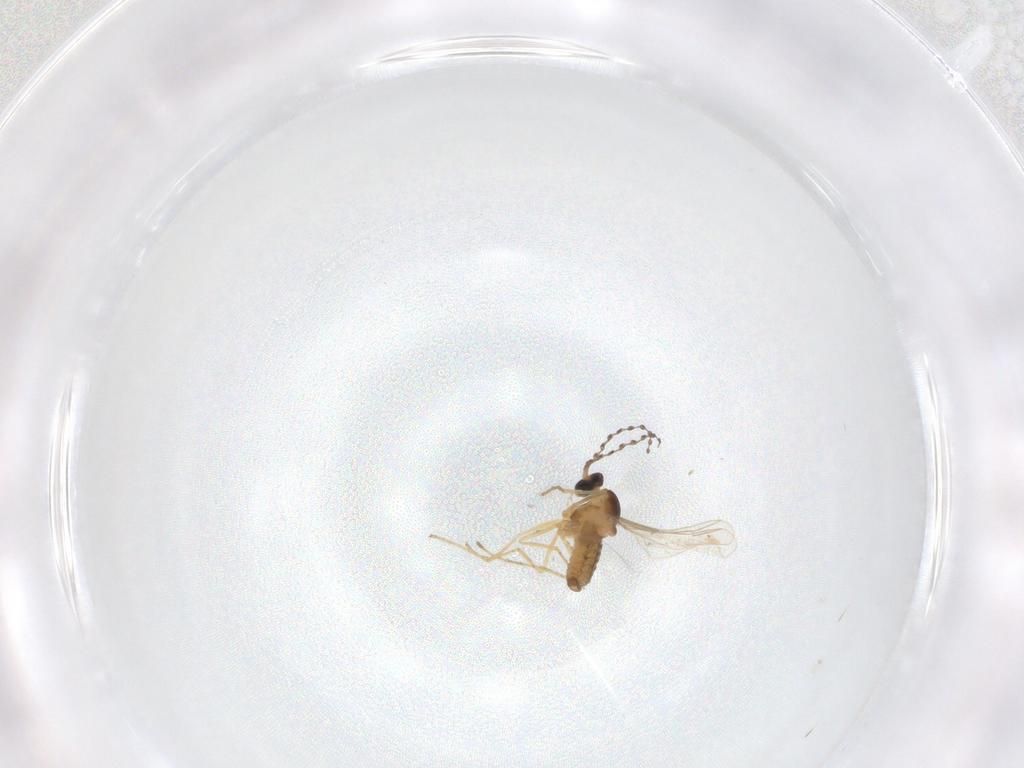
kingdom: Animalia
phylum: Arthropoda
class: Insecta
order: Diptera
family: Cecidomyiidae
